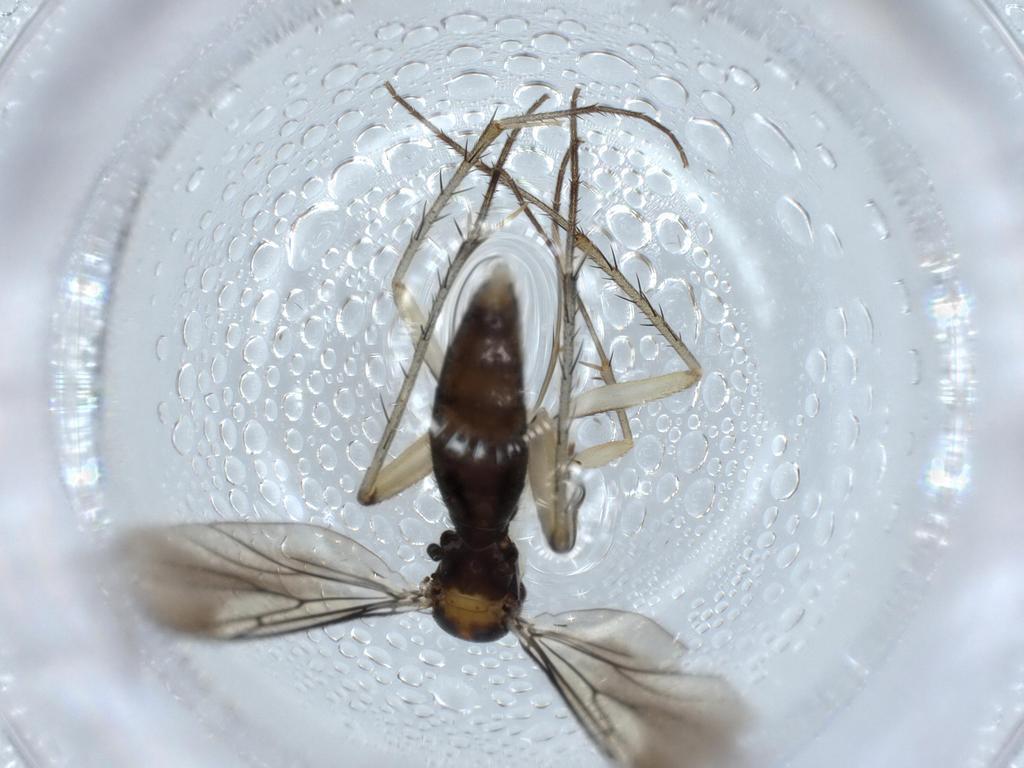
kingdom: Animalia
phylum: Arthropoda
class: Insecta
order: Diptera
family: Mycetophilidae
